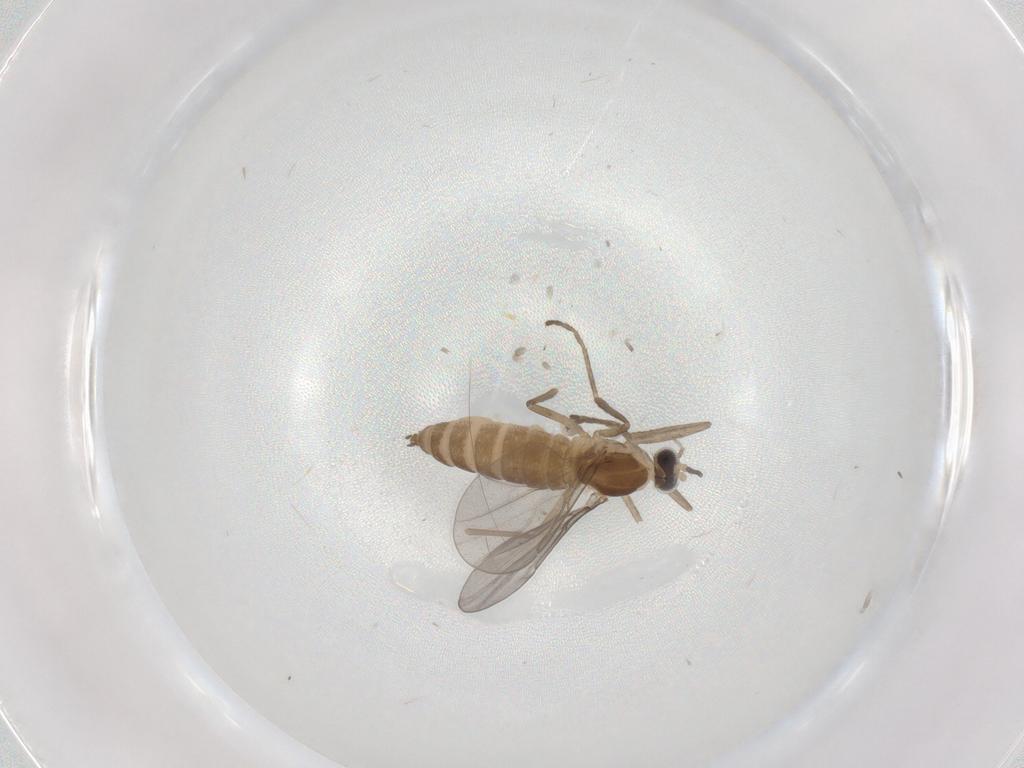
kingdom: Animalia
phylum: Arthropoda
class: Insecta
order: Diptera
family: Cecidomyiidae
